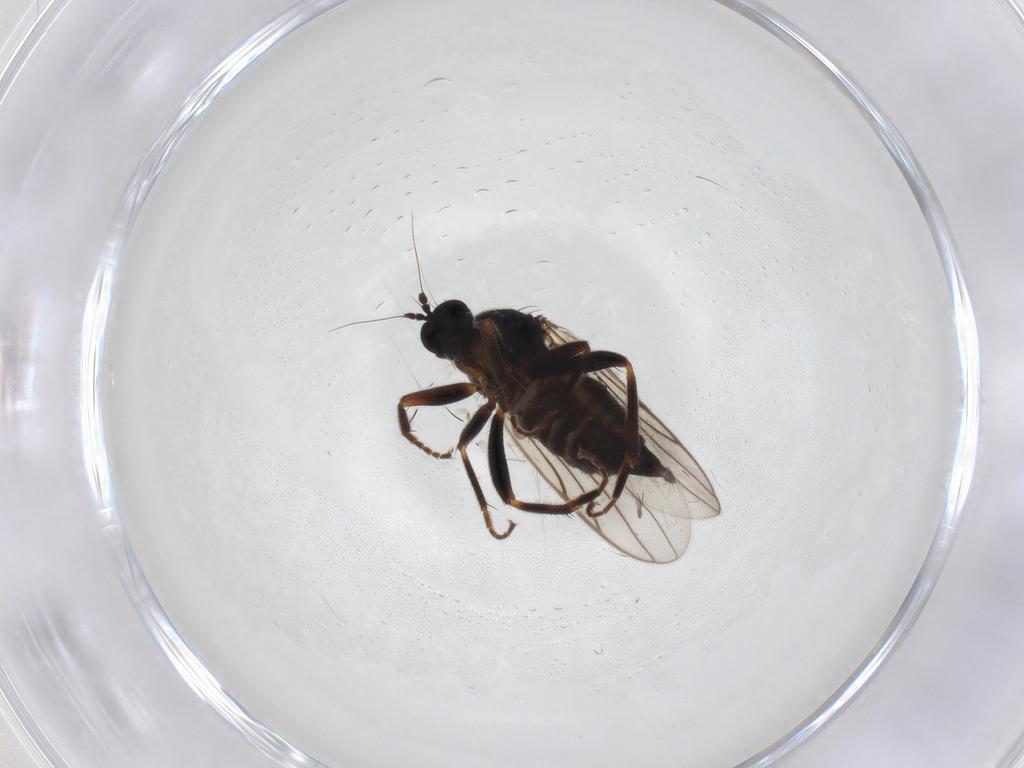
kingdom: Animalia
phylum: Arthropoda
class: Insecta
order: Diptera
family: Cecidomyiidae
